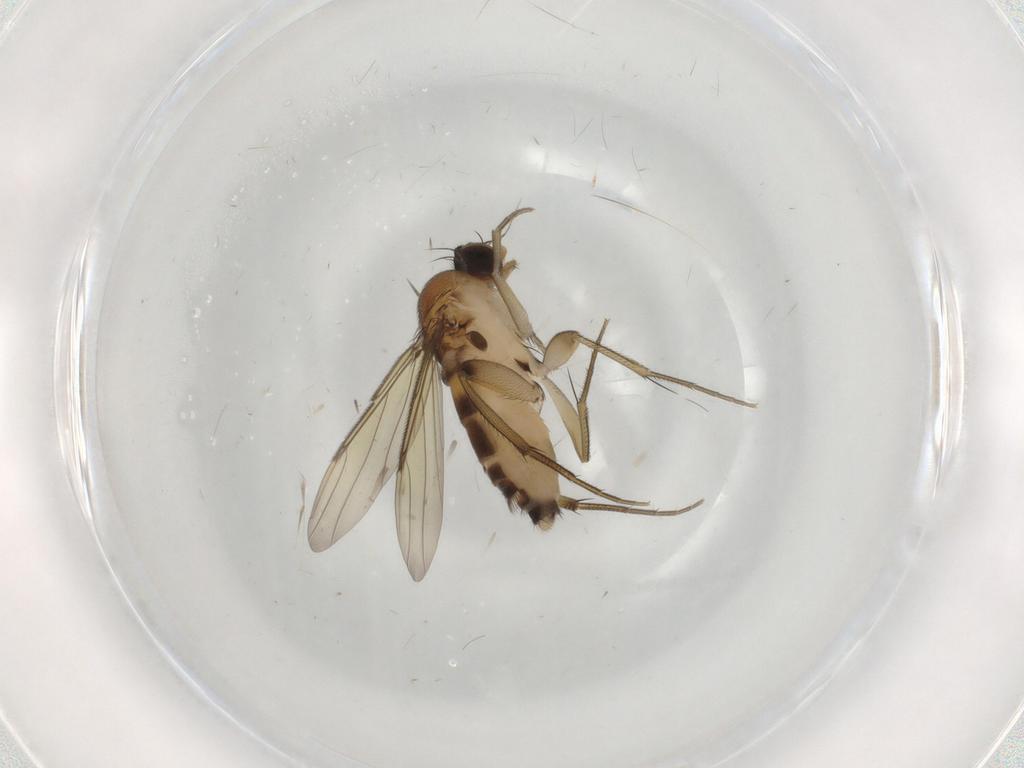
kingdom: Animalia
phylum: Arthropoda
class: Insecta
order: Diptera
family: Phoridae
